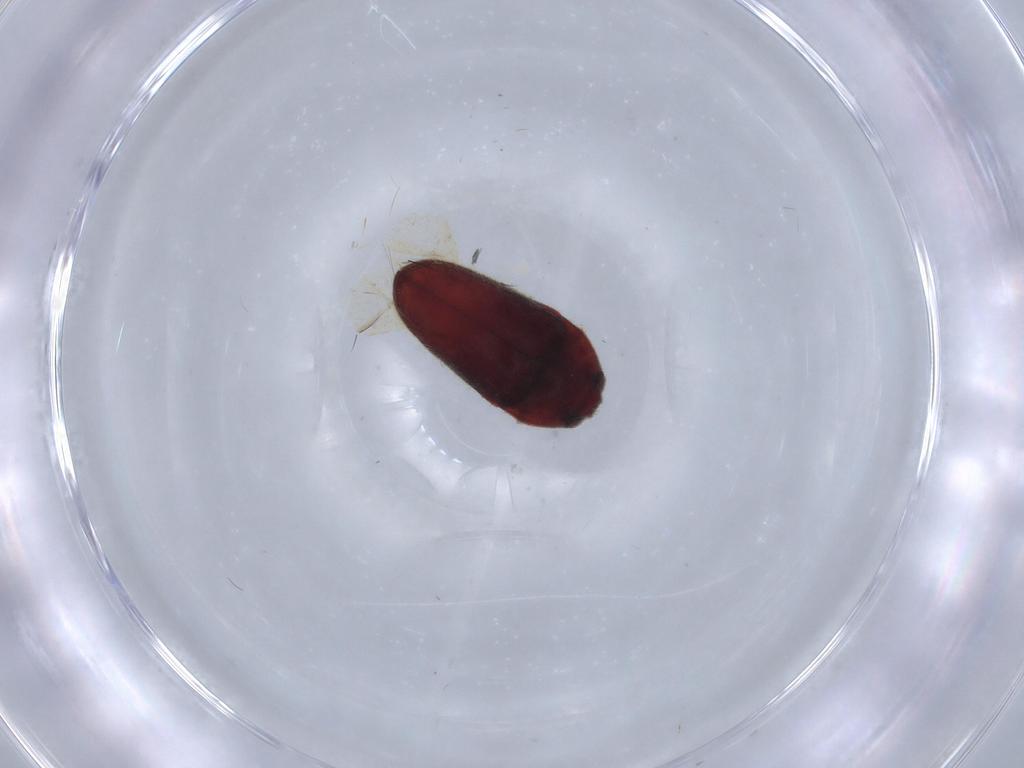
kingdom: Animalia
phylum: Arthropoda
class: Insecta
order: Coleoptera
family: Throscidae
